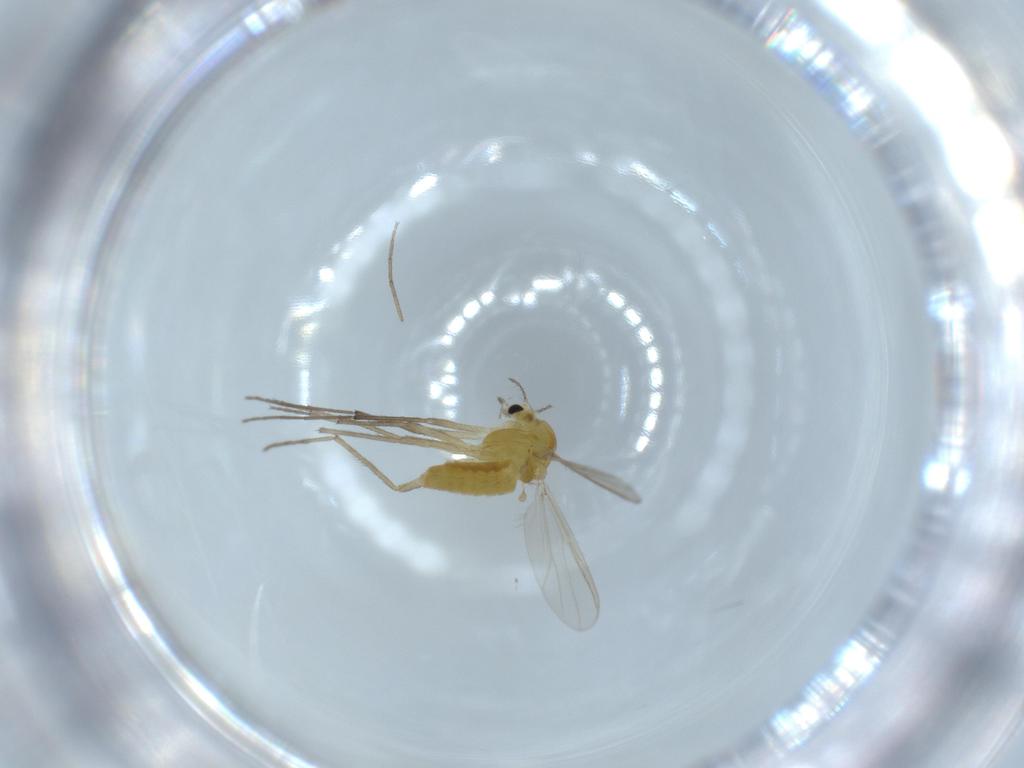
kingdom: Animalia
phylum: Arthropoda
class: Insecta
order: Diptera
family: Chironomidae
